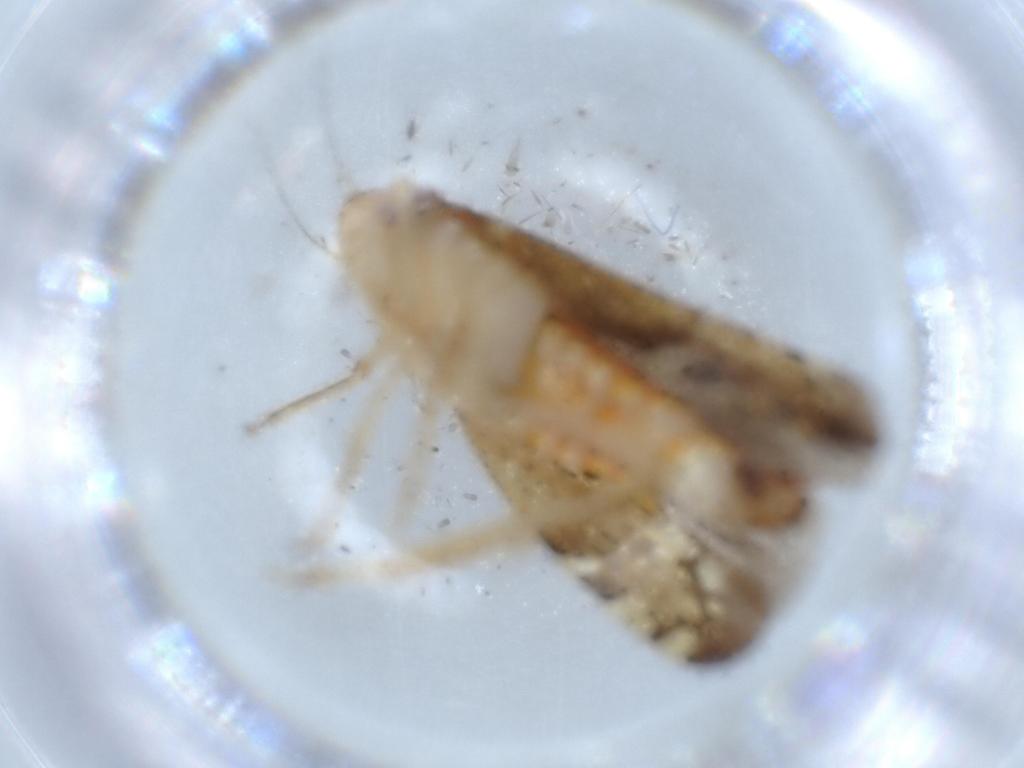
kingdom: Animalia
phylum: Arthropoda
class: Insecta
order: Hemiptera
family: Cicadellidae
